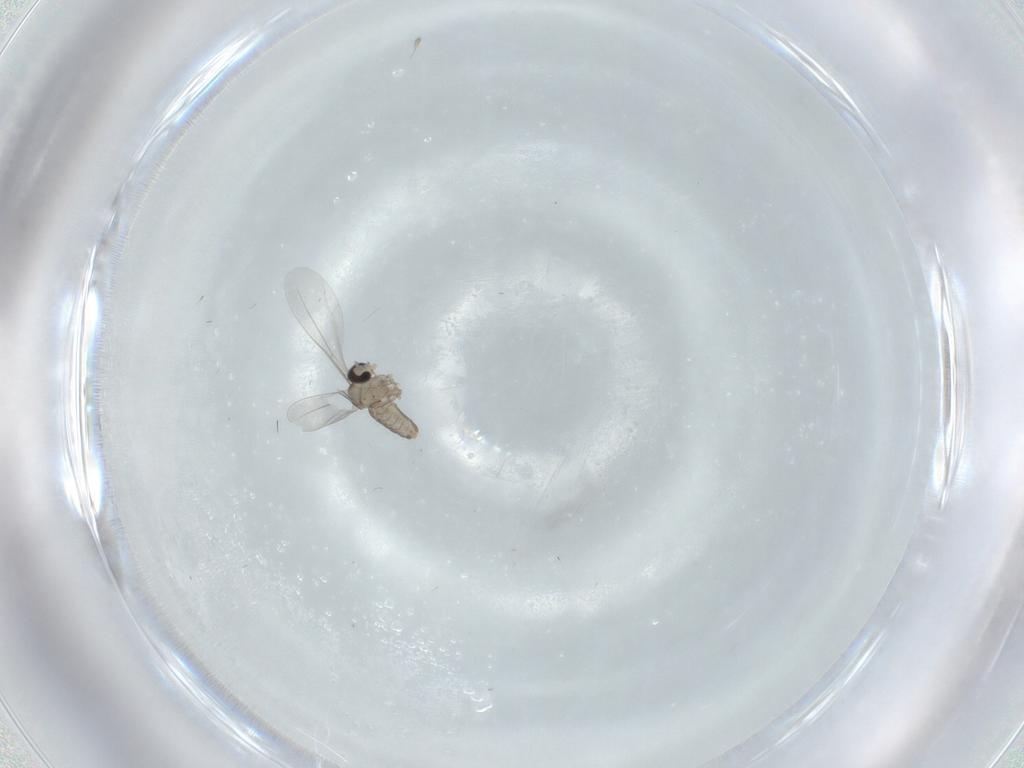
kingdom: Animalia
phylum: Arthropoda
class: Insecta
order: Diptera
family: Cecidomyiidae
